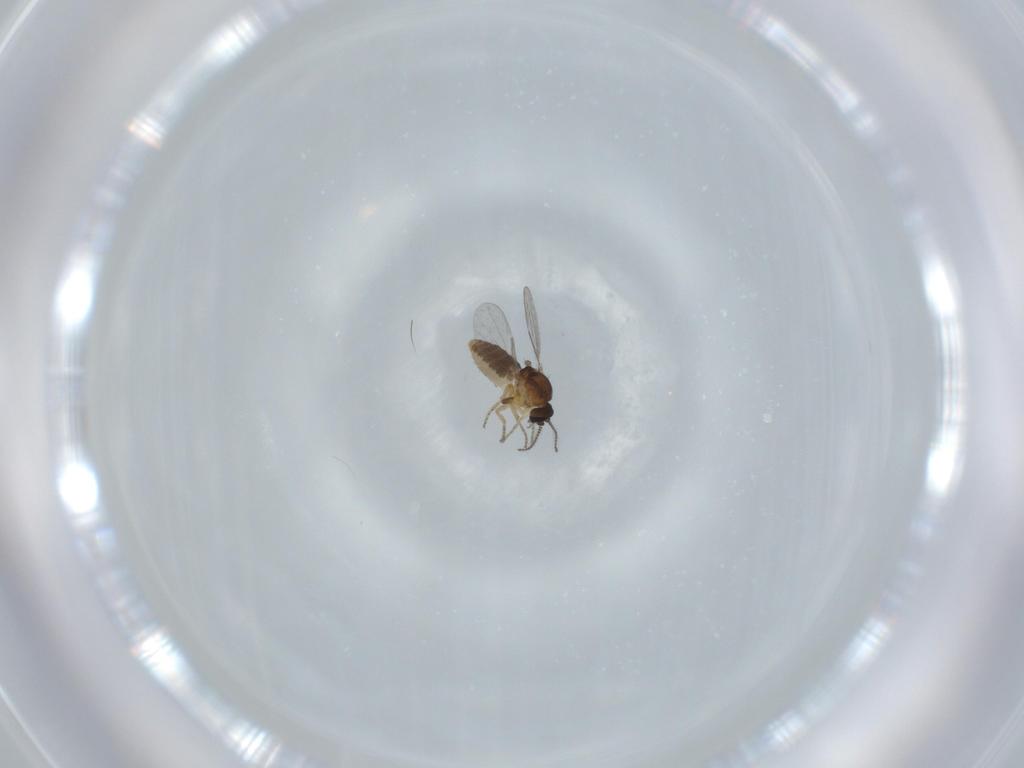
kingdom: Animalia
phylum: Arthropoda
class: Insecta
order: Diptera
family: Ceratopogonidae
